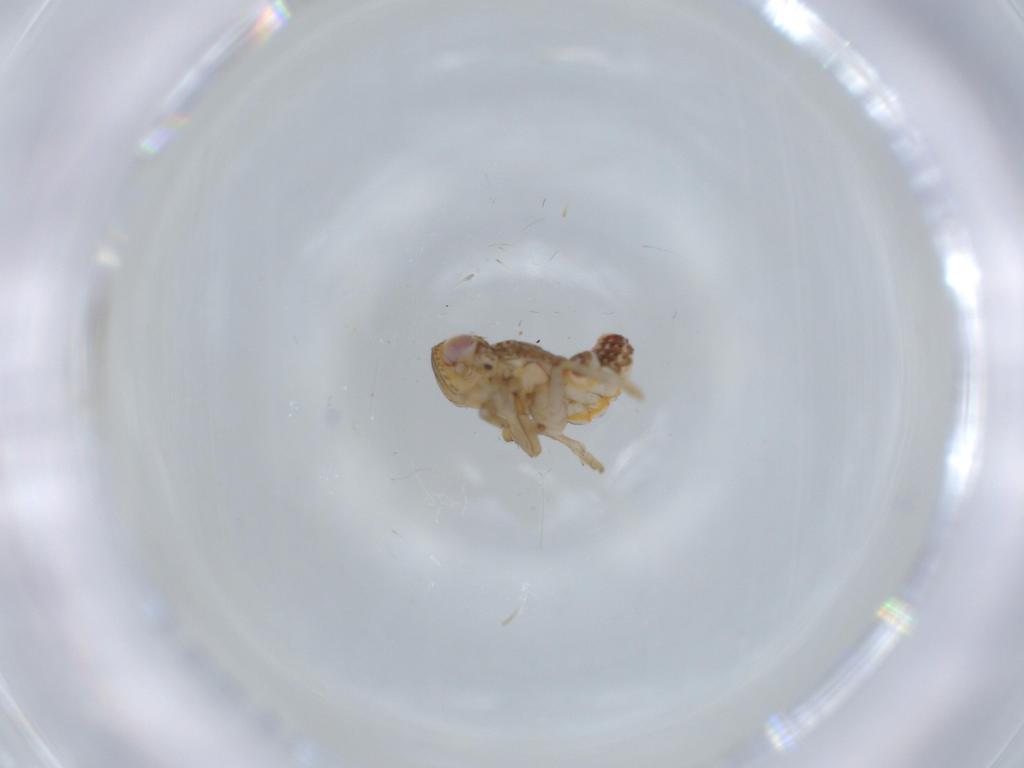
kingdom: Animalia
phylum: Arthropoda
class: Insecta
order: Hemiptera
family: Issidae
